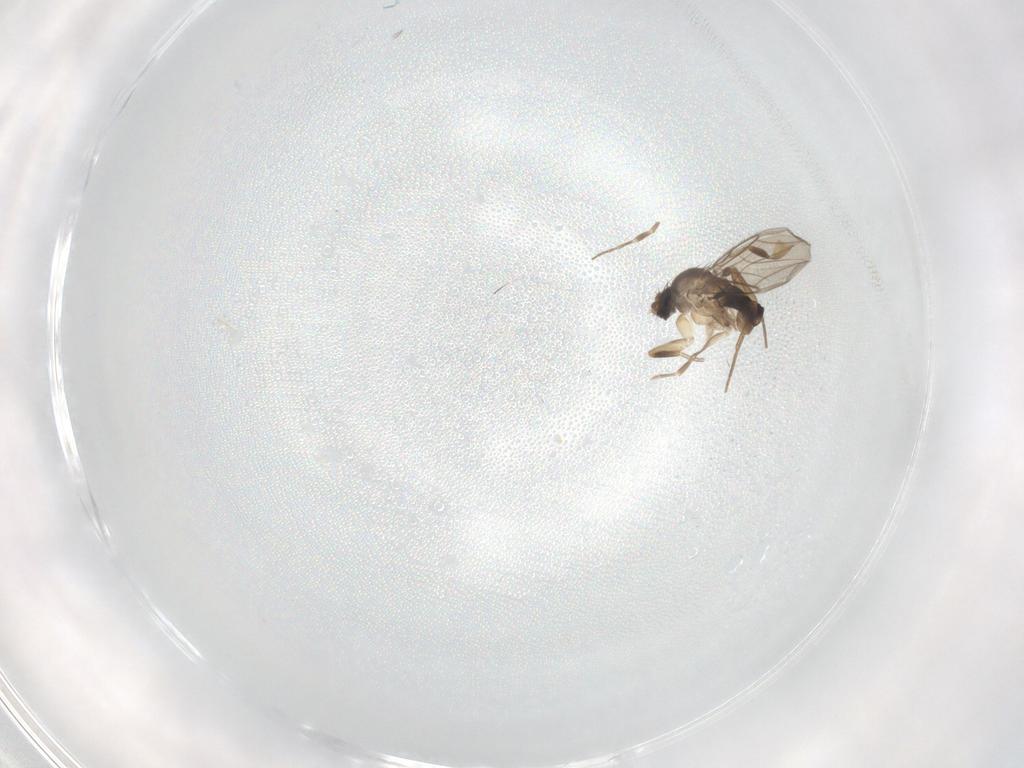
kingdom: Animalia
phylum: Arthropoda
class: Insecta
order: Diptera
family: Phoridae
